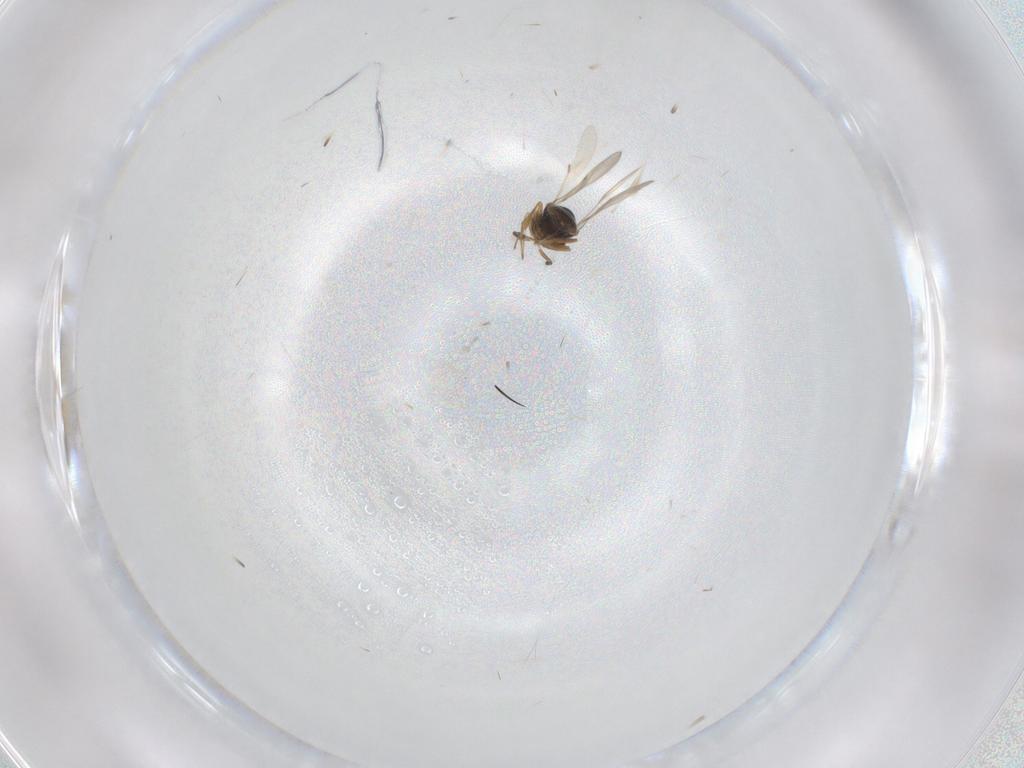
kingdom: Animalia
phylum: Arthropoda
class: Insecta
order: Hymenoptera
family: Scelionidae
